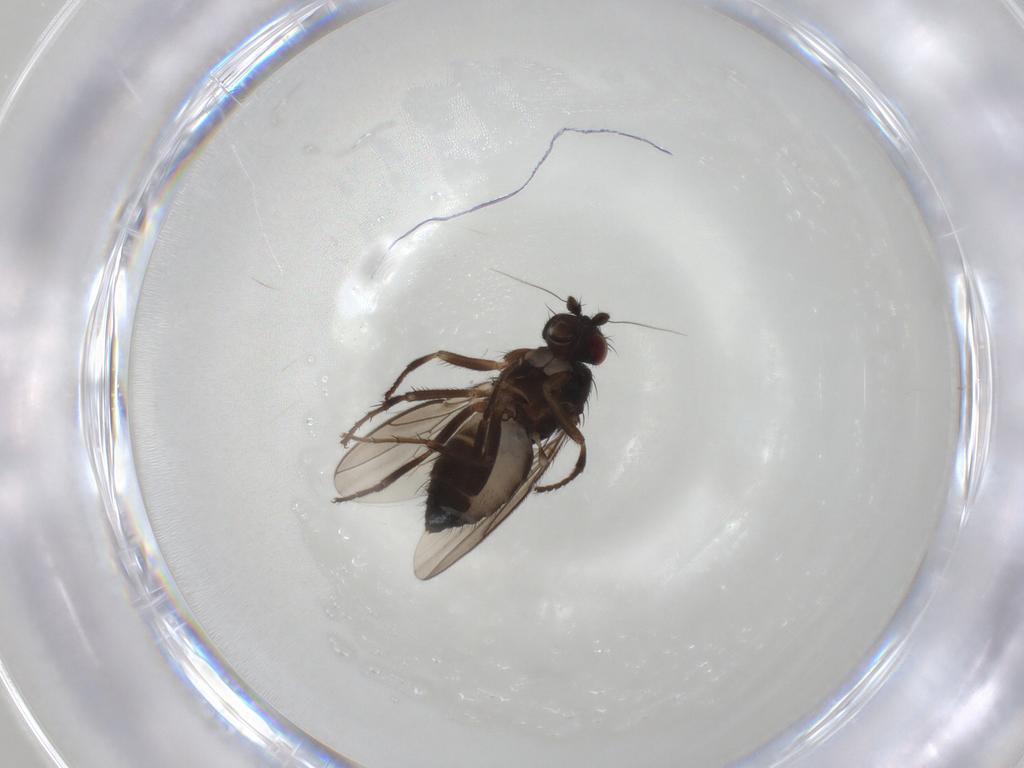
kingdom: Animalia
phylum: Arthropoda
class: Insecta
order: Diptera
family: Sphaeroceridae
